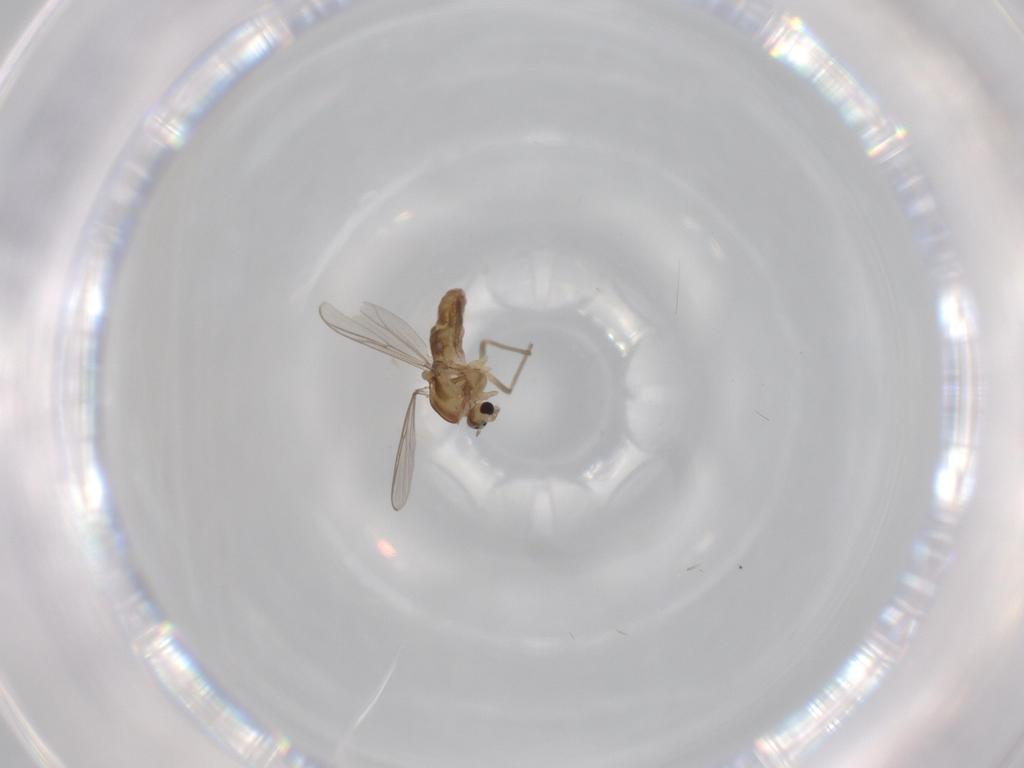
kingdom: Animalia
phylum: Arthropoda
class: Insecta
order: Diptera
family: Chironomidae
